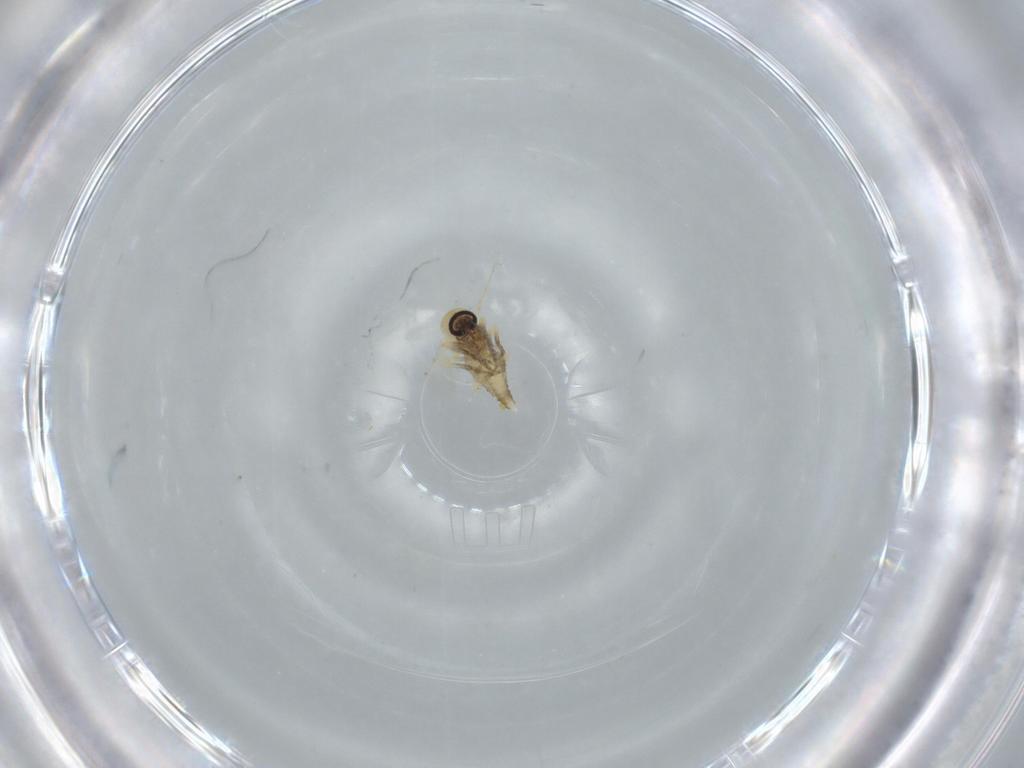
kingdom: Animalia
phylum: Arthropoda
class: Insecta
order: Diptera
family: Ceratopogonidae
